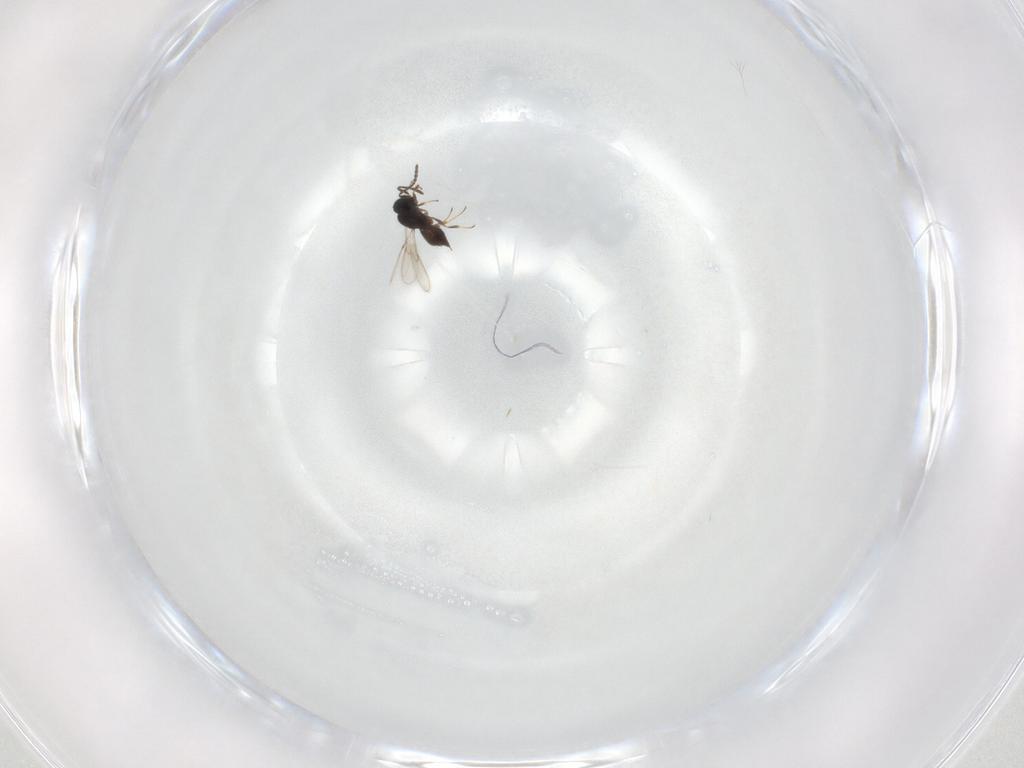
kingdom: Animalia
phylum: Arthropoda
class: Insecta
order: Hymenoptera
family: Scelionidae
